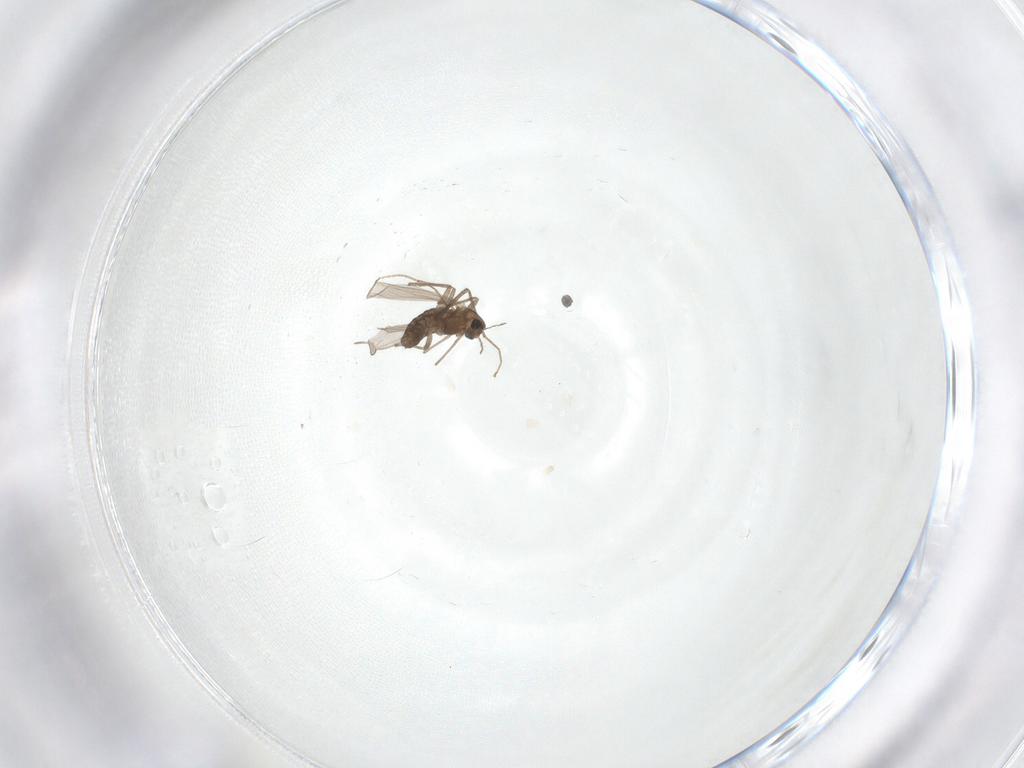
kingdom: Animalia
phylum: Arthropoda
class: Insecta
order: Diptera
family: Chironomidae
